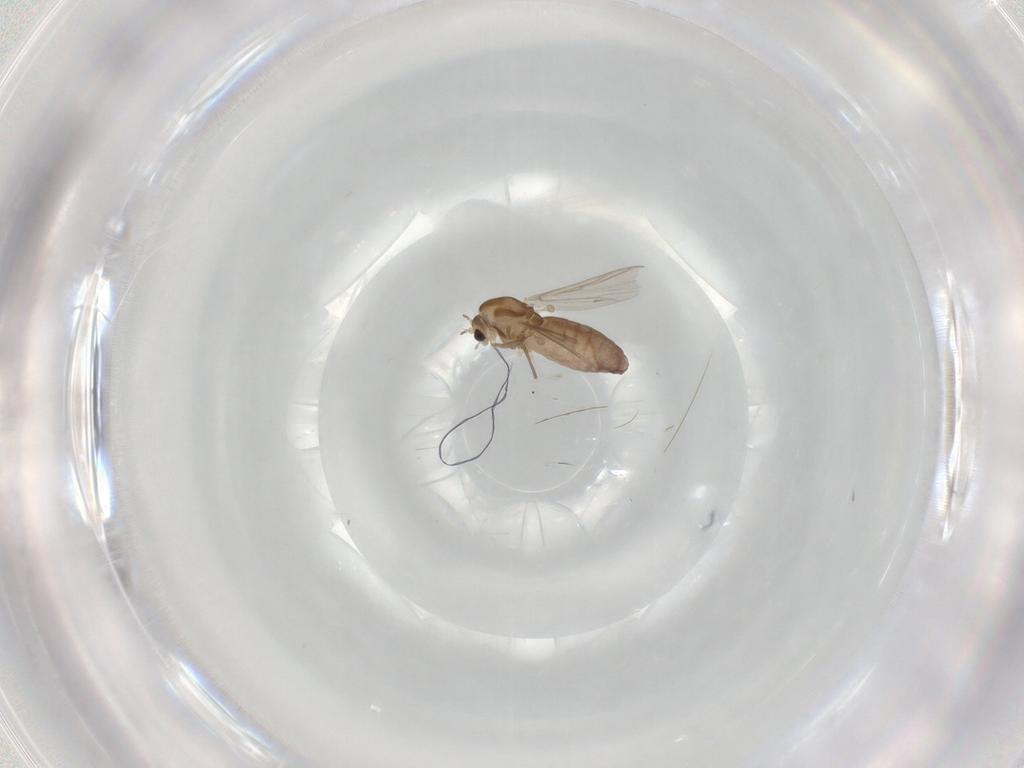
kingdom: Animalia
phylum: Arthropoda
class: Insecta
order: Diptera
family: Chironomidae
